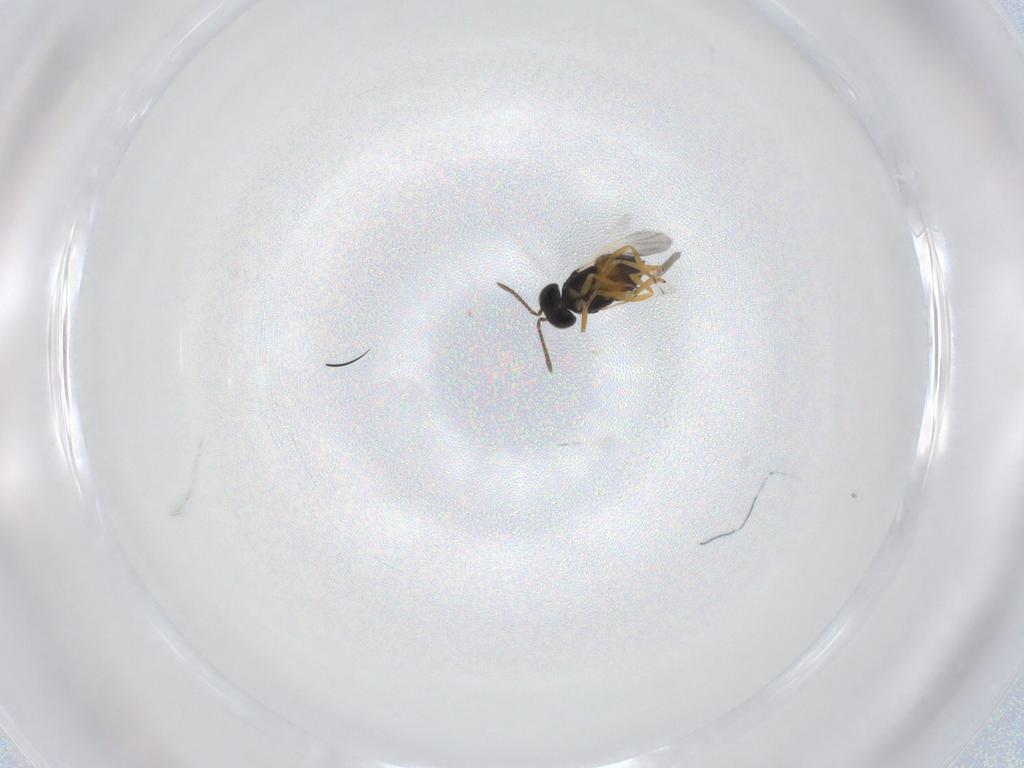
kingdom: Animalia
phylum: Arthropoda
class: Insecta
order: Hymenoptera
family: Encyrtidae
